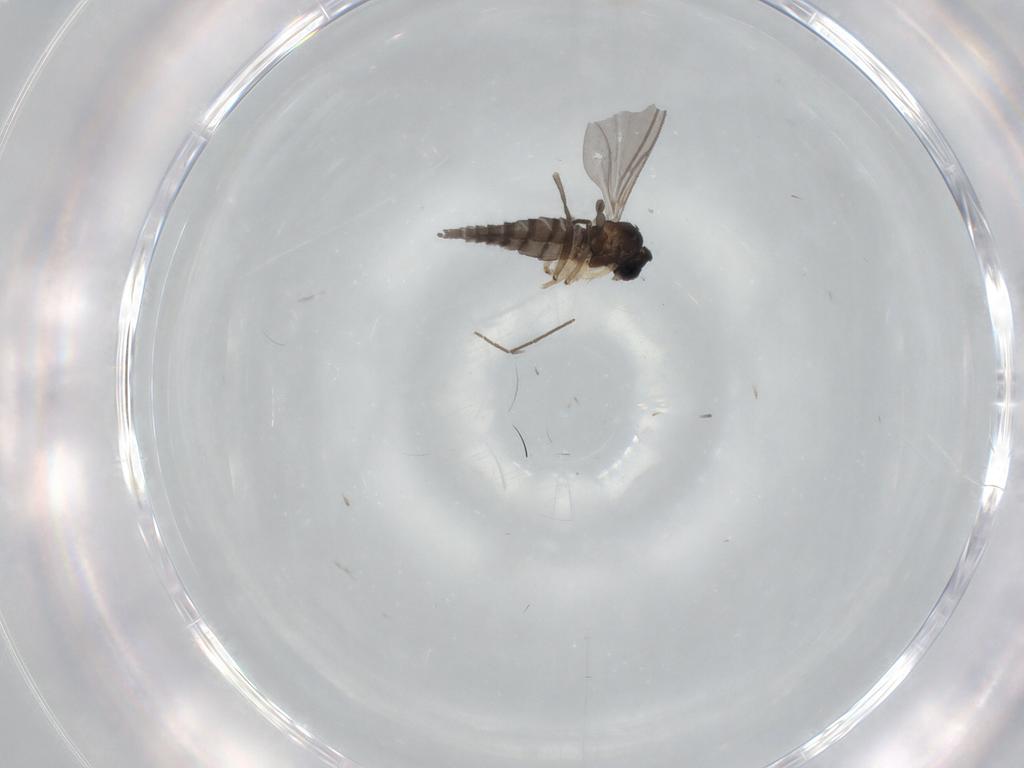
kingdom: Animalia
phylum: Arthropoda
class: Insecta
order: Diptera
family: Sciaridae
